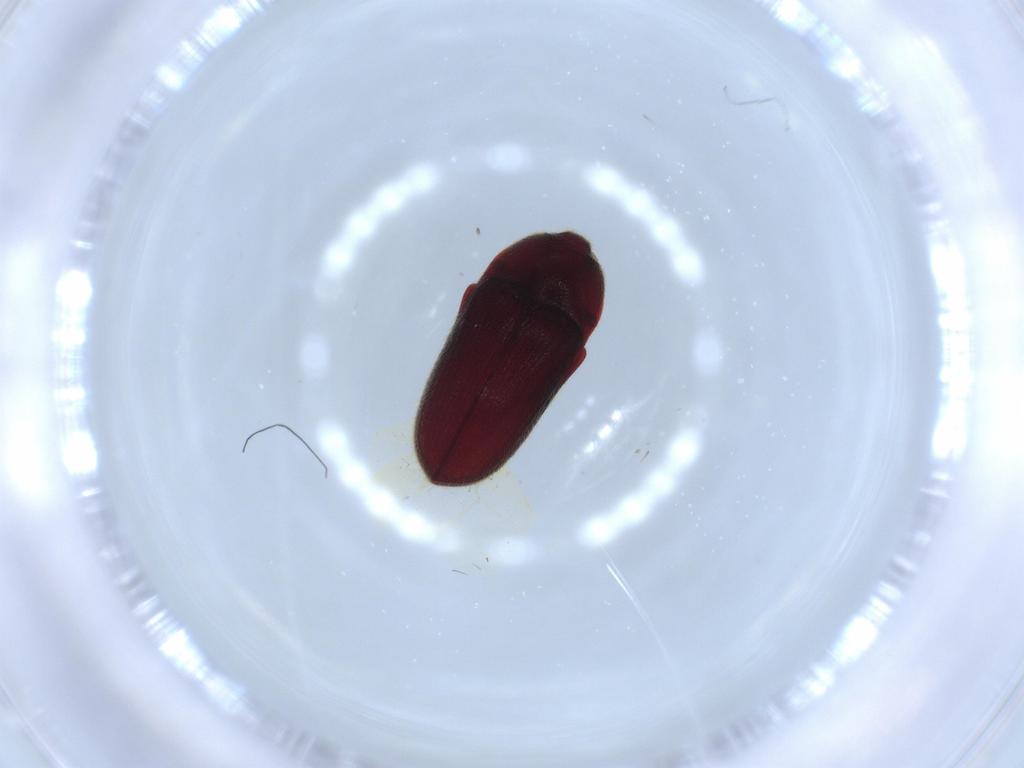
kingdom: Animalia
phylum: Arthropoda
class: Insecta
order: Coleoptera
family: Throscidae
